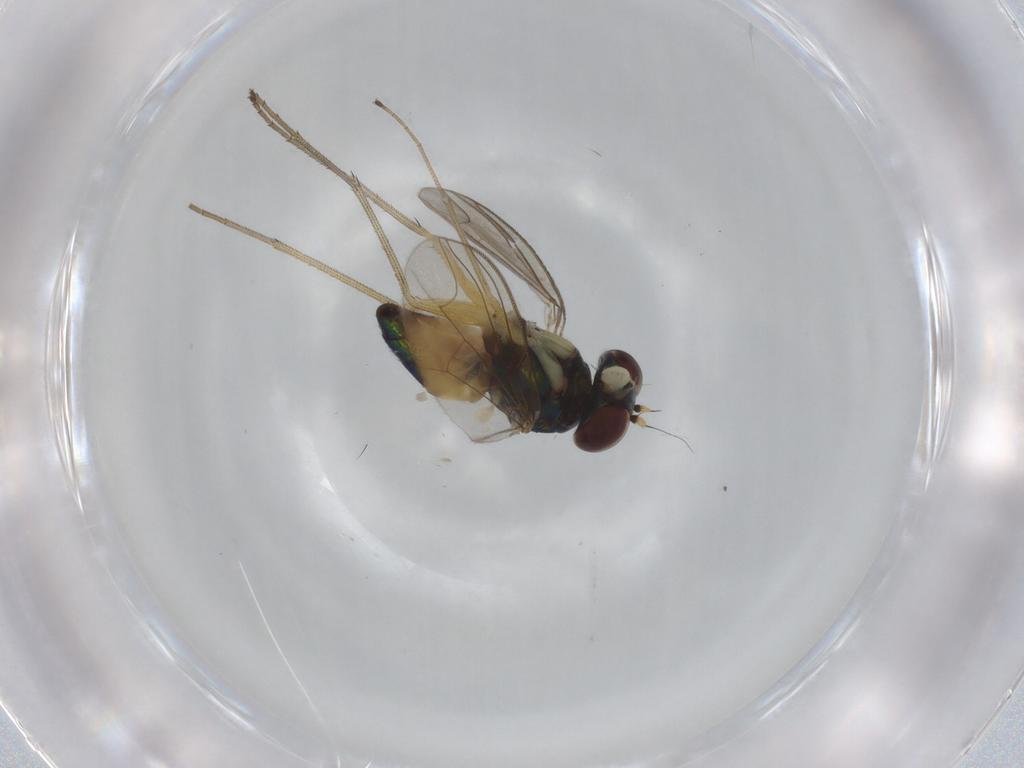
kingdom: Animalia
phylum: Arthropoda
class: Insecta
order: Diptera
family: Dolichopodidae
